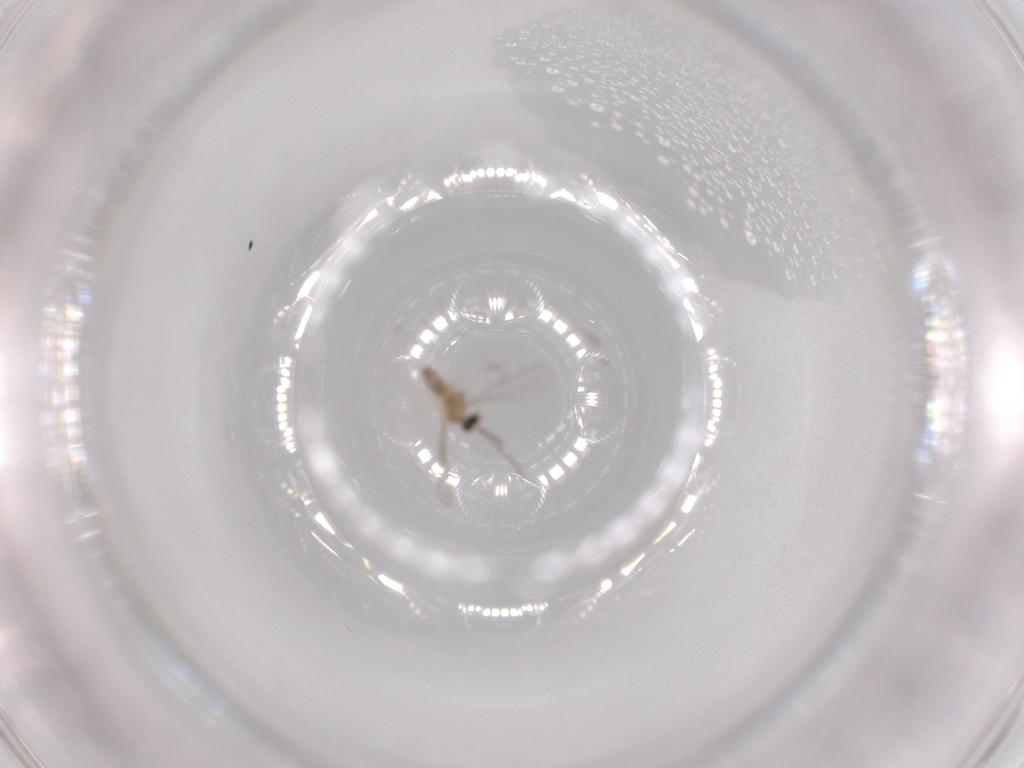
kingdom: Animalia
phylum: Arthropoda
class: Insecta
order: Diptera
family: Cecidomyiidae
